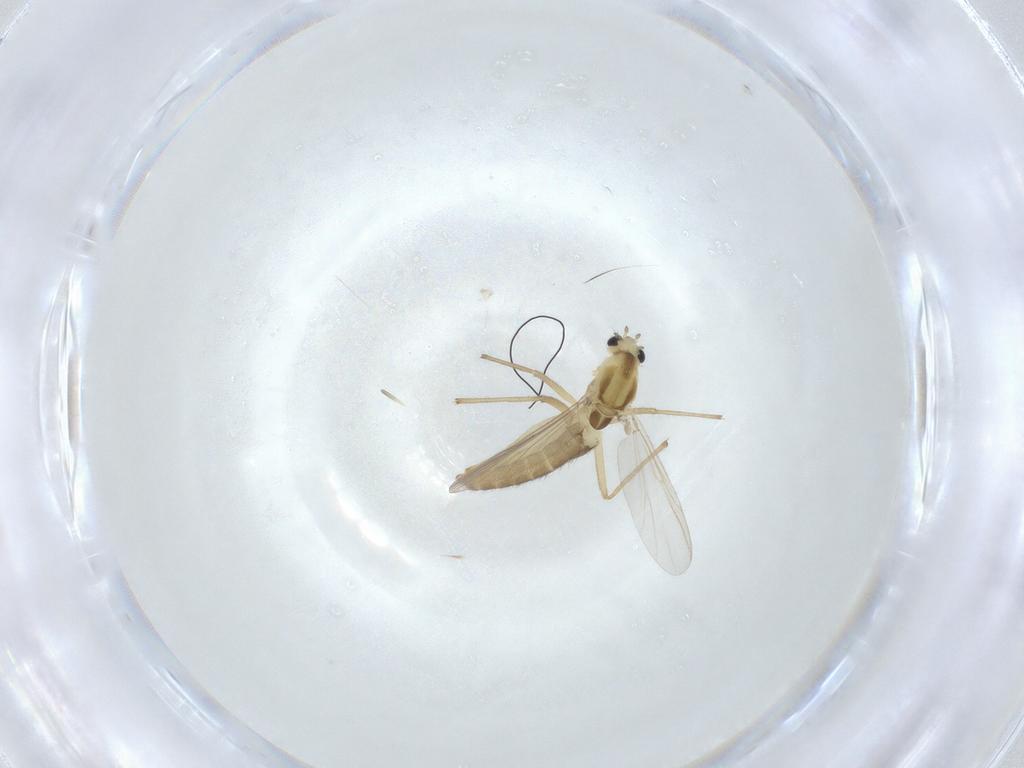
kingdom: Animalia
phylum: Arthropoda
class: Insecta
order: Diptera
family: Chironomidae
